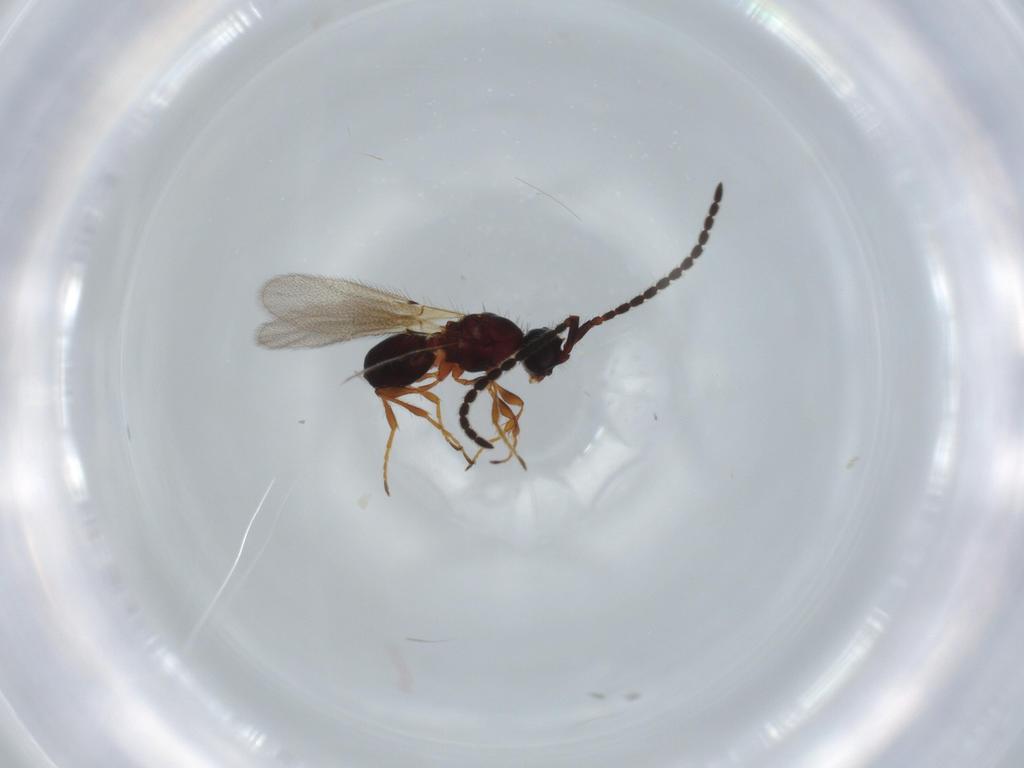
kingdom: Animalia
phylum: Arthropoda
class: Insecta
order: Hymenoptera
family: Diapriidae
